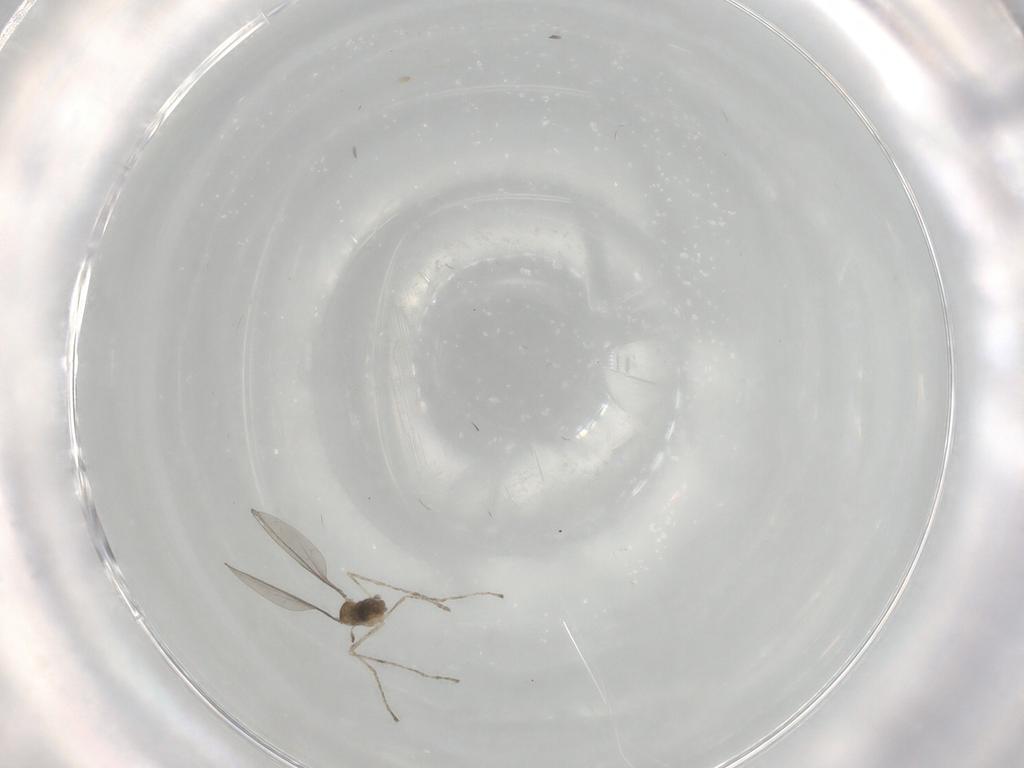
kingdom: Animalia
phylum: Arthropoda
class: Insecta
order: Diptera
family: Cecidomyiidae
